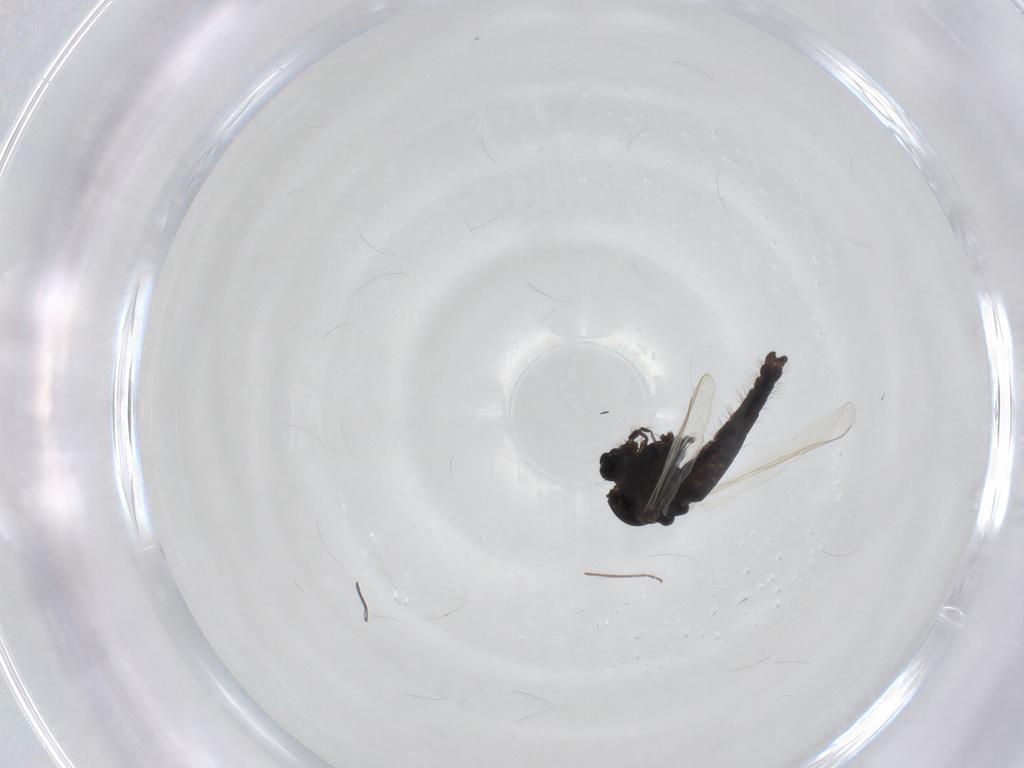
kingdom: Animalia
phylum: Arthropoda
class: Insecta
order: Diptera
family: Chironomidae
